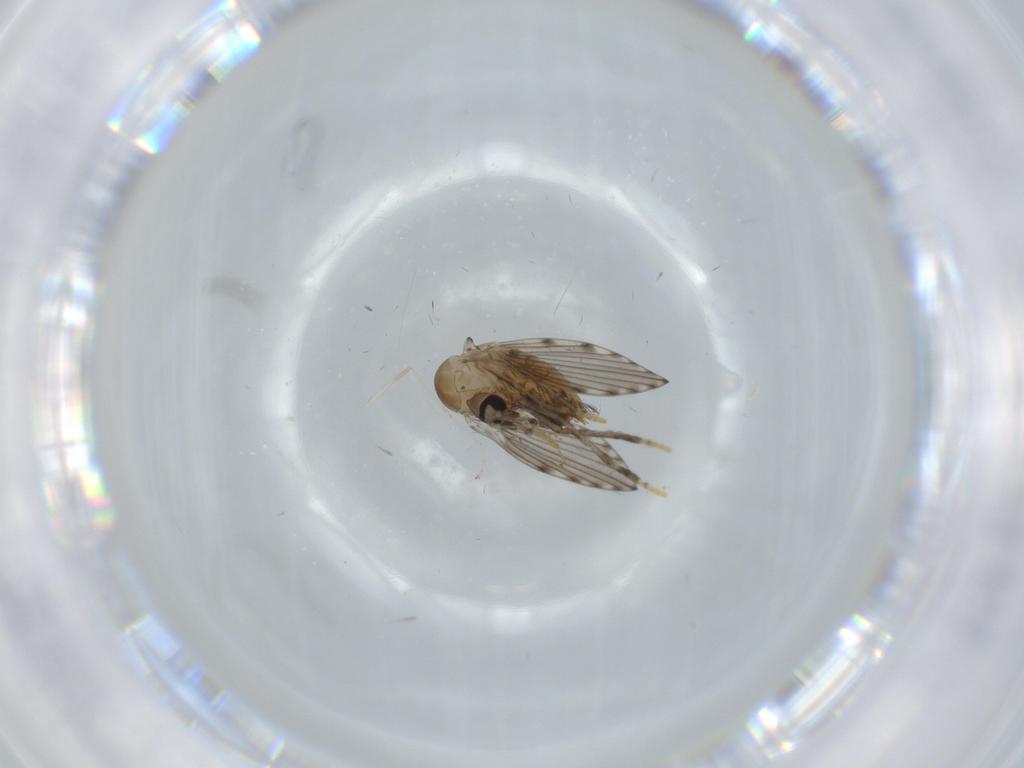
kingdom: Animalia
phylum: Arthropoda
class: Insecta
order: Diptera
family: Psychodidae
